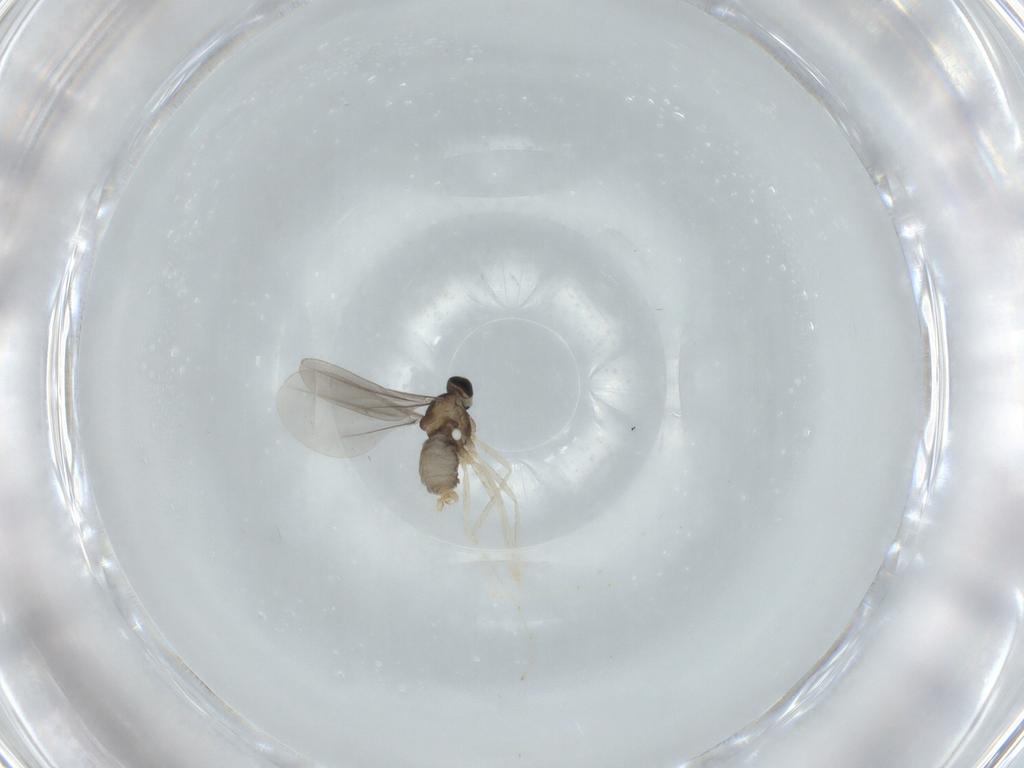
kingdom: Animalia
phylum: Arthropoda
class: Insecta
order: Diptera
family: Cecidomyiidae
